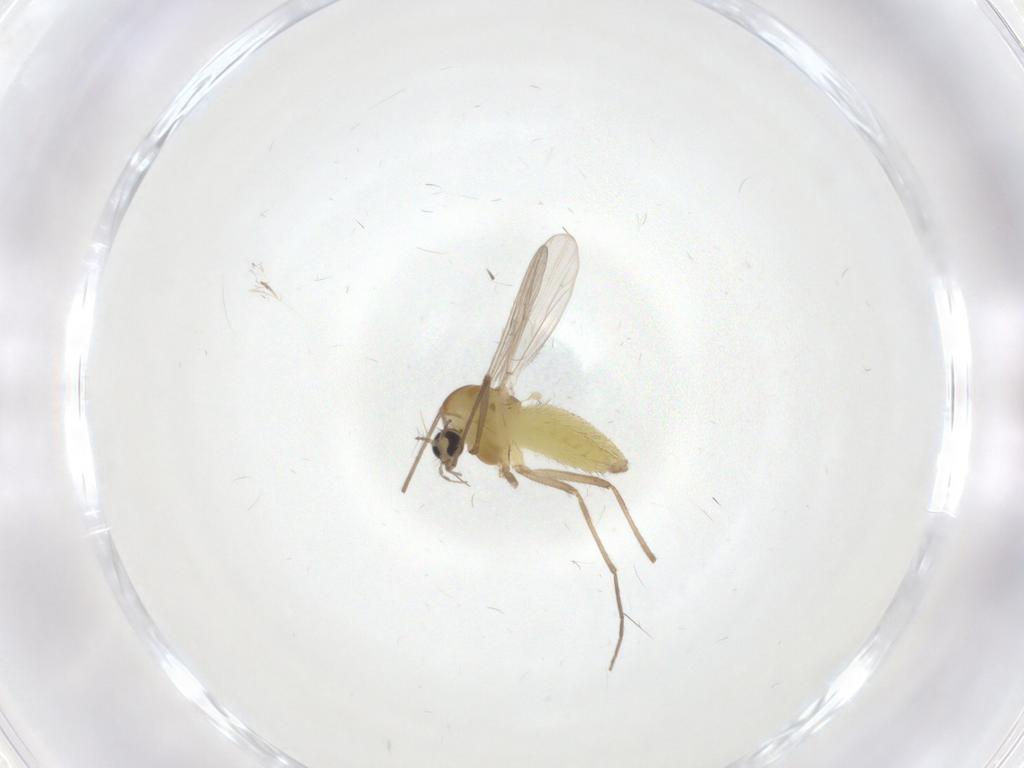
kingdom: Animalia
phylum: Arthropoda
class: Insecta
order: Diptera
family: Chironomidae
